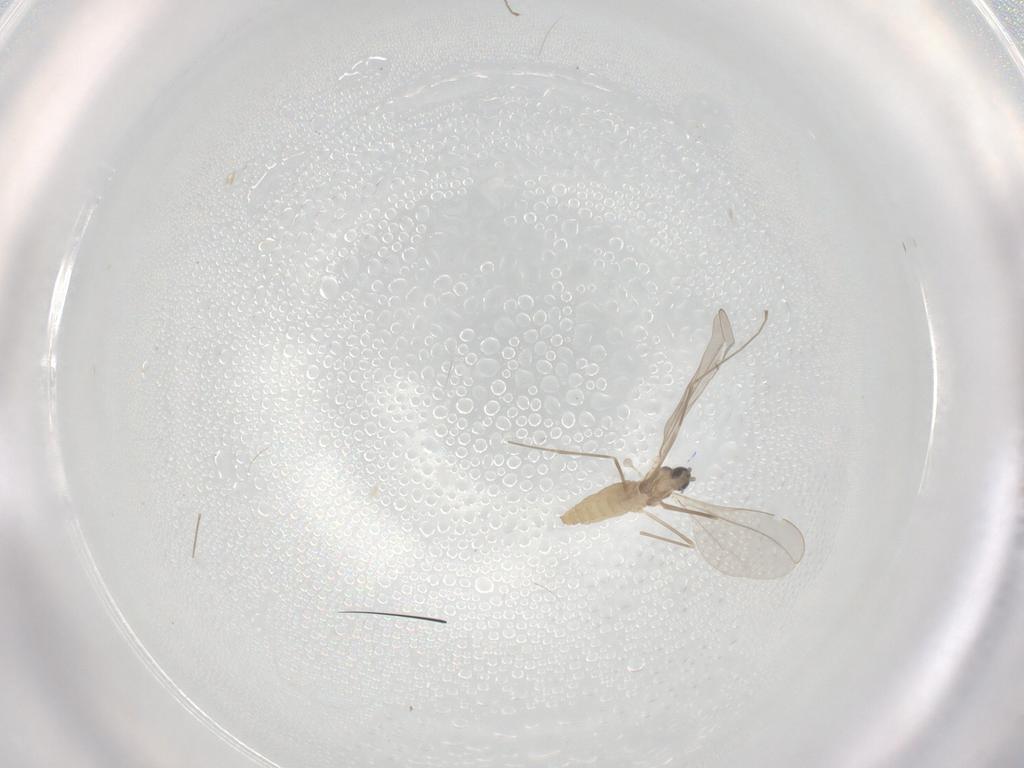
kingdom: Animalia
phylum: Arthropoda
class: Insecta
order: Diptera
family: Cecidomyiidae
